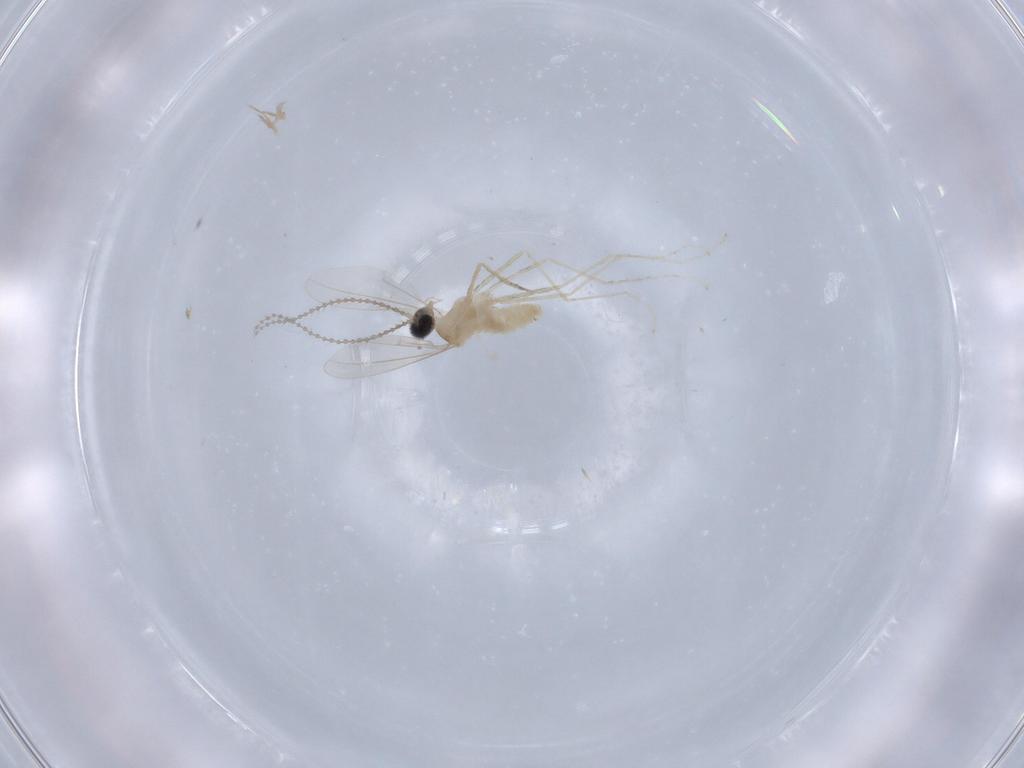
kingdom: Animalia
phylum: Arthropoda
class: Insecta
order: Diptera
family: Cecidomyiidae
